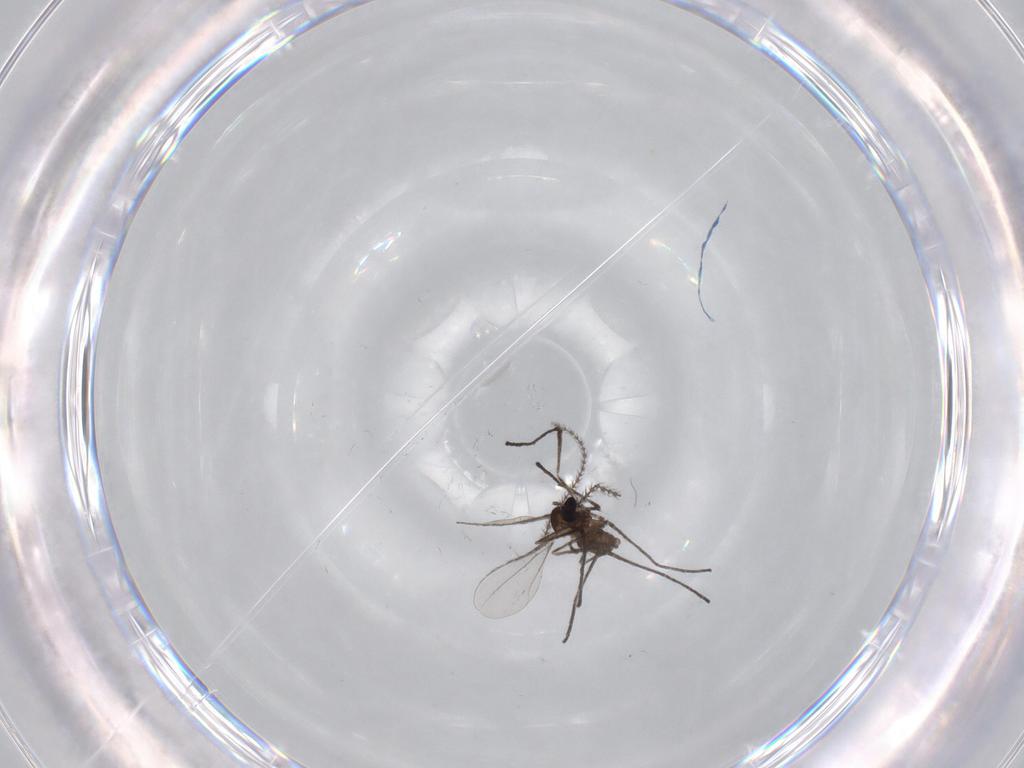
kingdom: Animalia
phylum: Arthropoda
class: Insecta
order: Diptera
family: Cecidomyiidae
